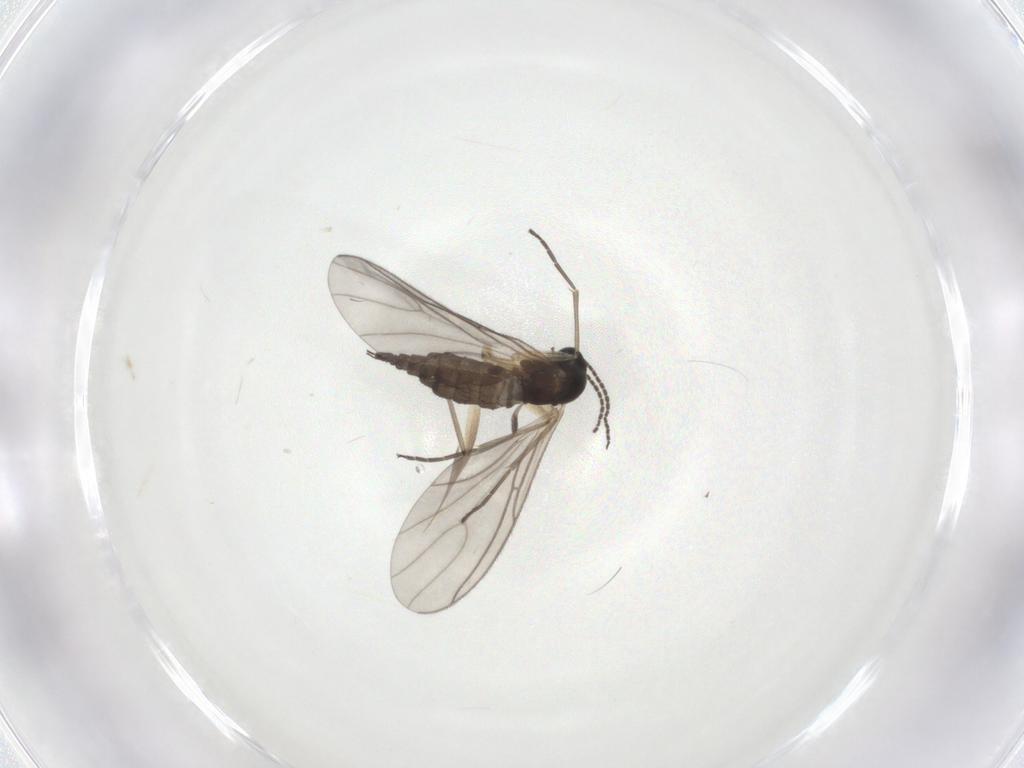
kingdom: Animalia
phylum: Arthropoda
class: Insecta
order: Diptera
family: Sciaridae
